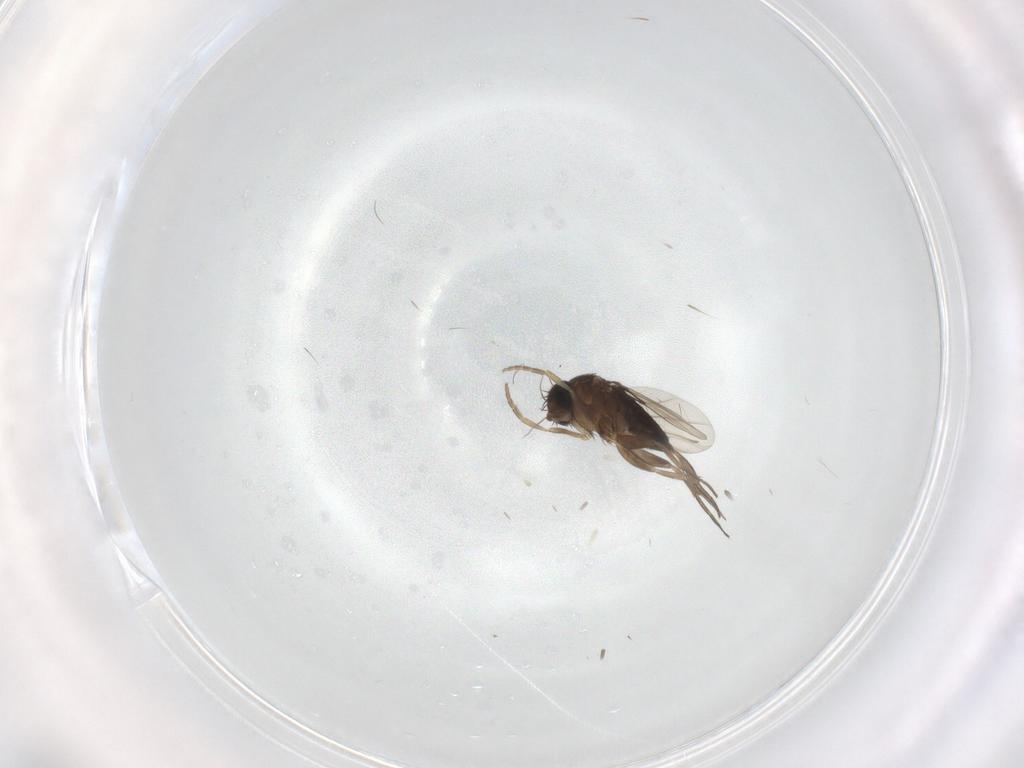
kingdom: Animalia
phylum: Arthropoda
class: Insecta
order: Diptera
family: Phoridae
